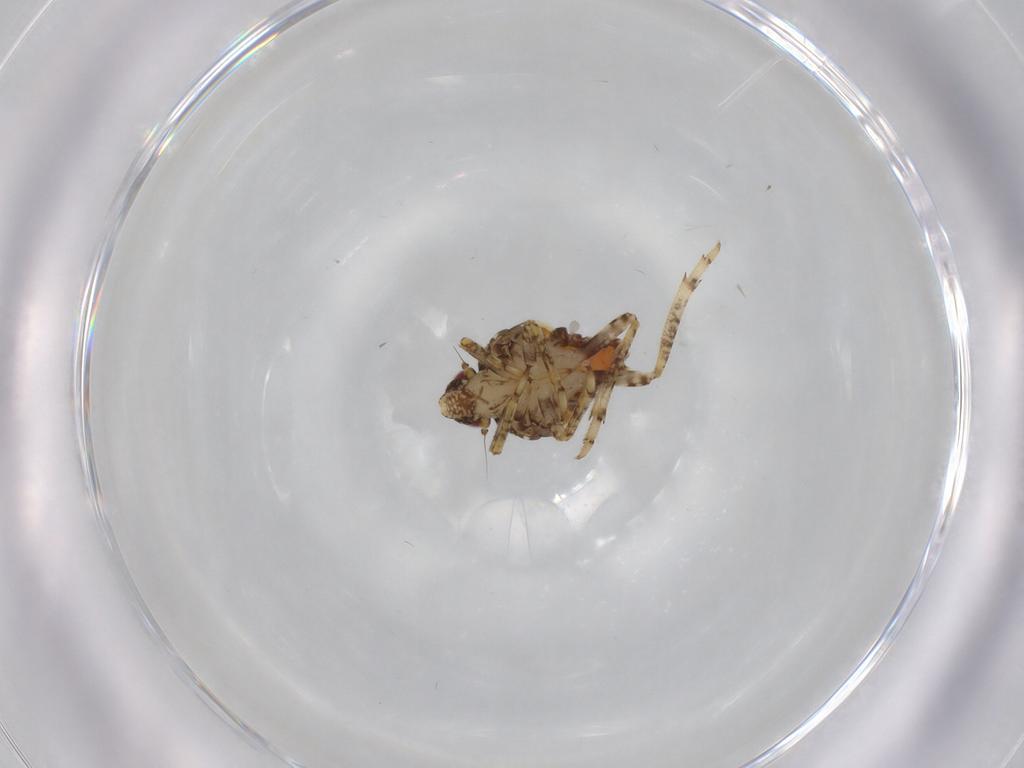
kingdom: Animalia
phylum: Arthropoda
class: Insecta
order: Hemiptera
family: Issidae
